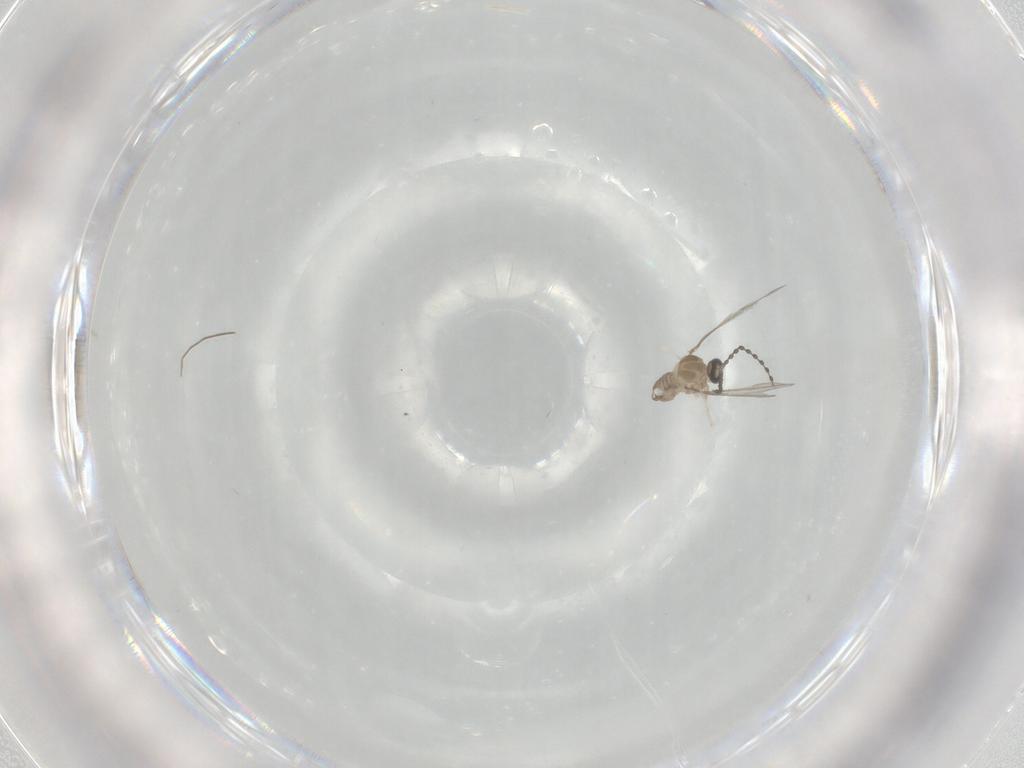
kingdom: Animalia
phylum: Arthropoda
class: Insecta
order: Diptera
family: Cecidomyiidae
